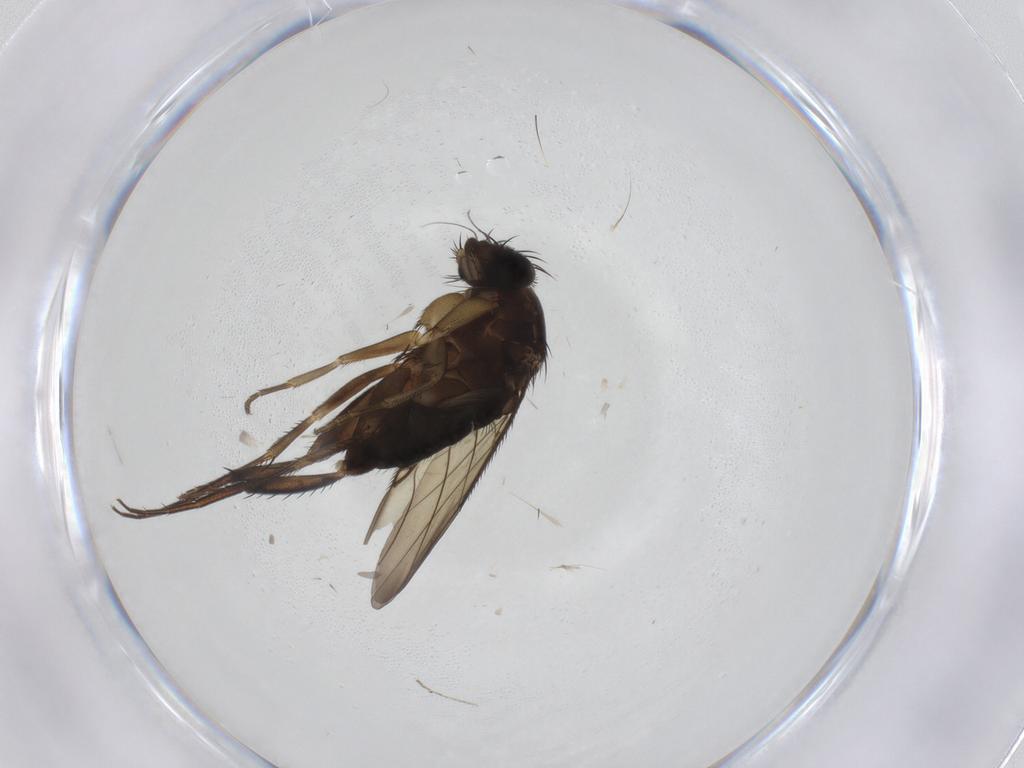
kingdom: Animalia
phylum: Arthropoda
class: Insecta
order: Diptera
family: Phoridae
